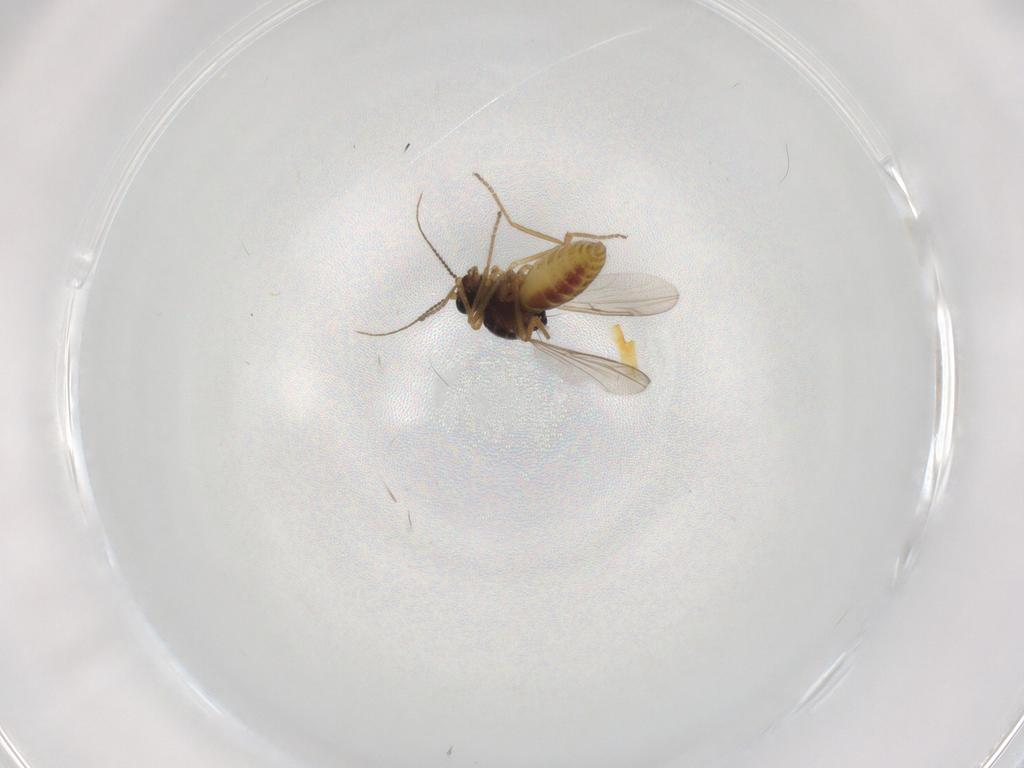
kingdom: Animalia
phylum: Arthropoda
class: Insecta
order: Diptera
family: Ceratopogonidae
